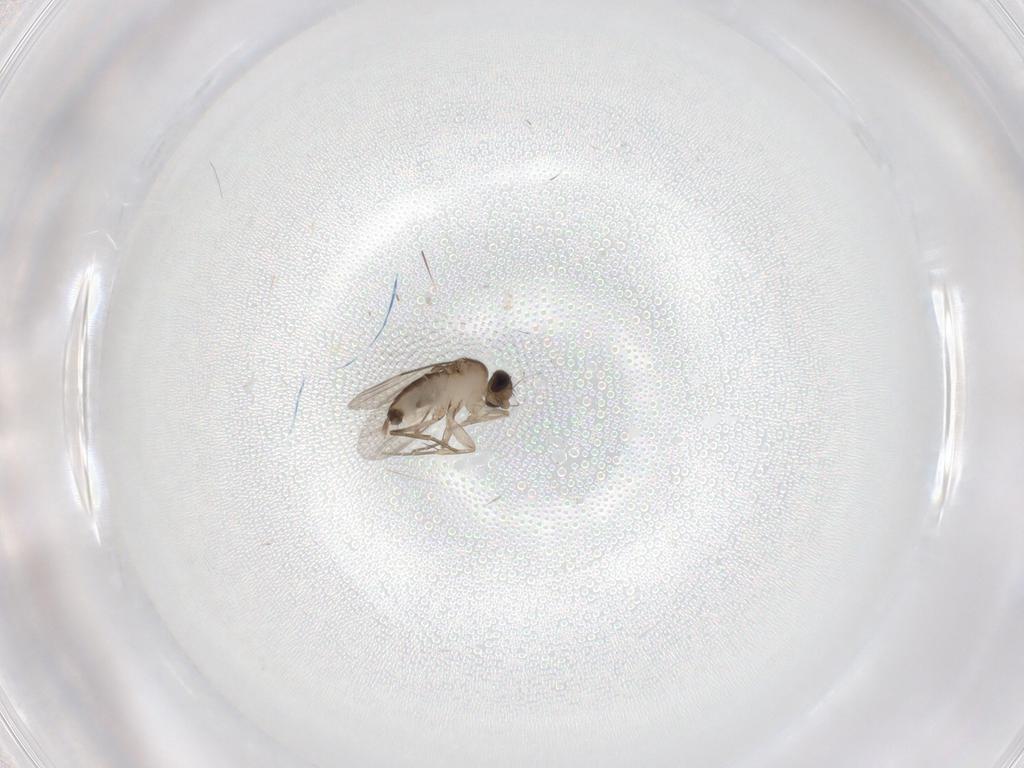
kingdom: Animalia
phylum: Arthropoda
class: Insecta
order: Diptera
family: Phoridae
